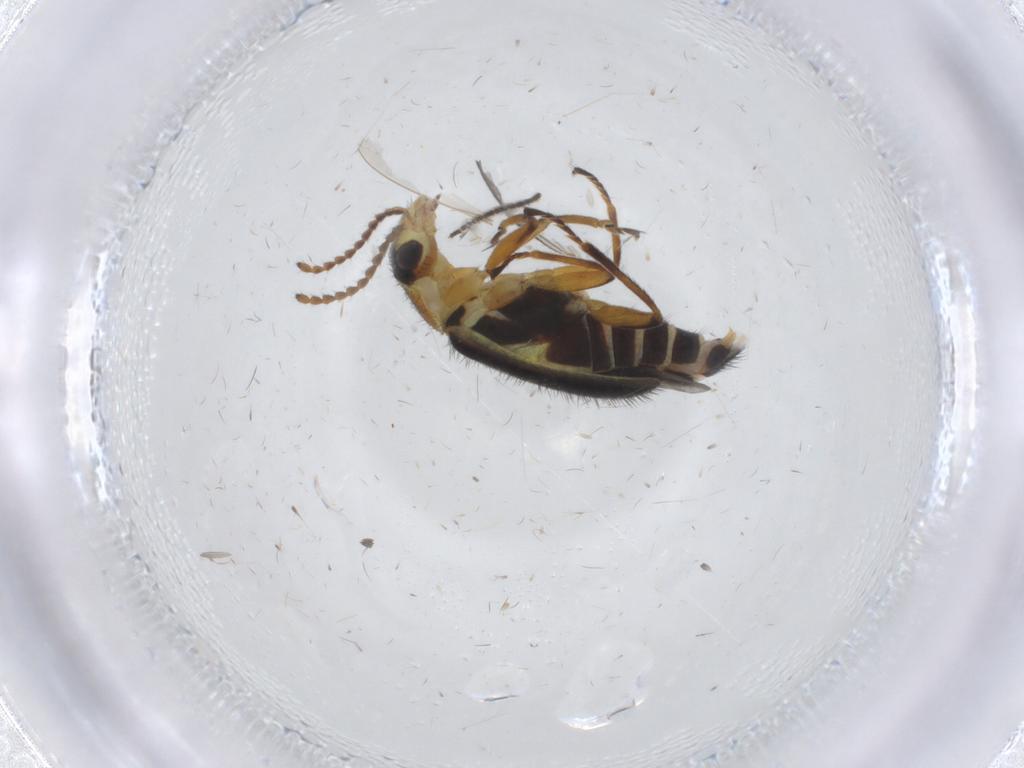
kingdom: Animalia
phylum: Arthropoda
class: Insecta
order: Coleoptera
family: Melyridae
